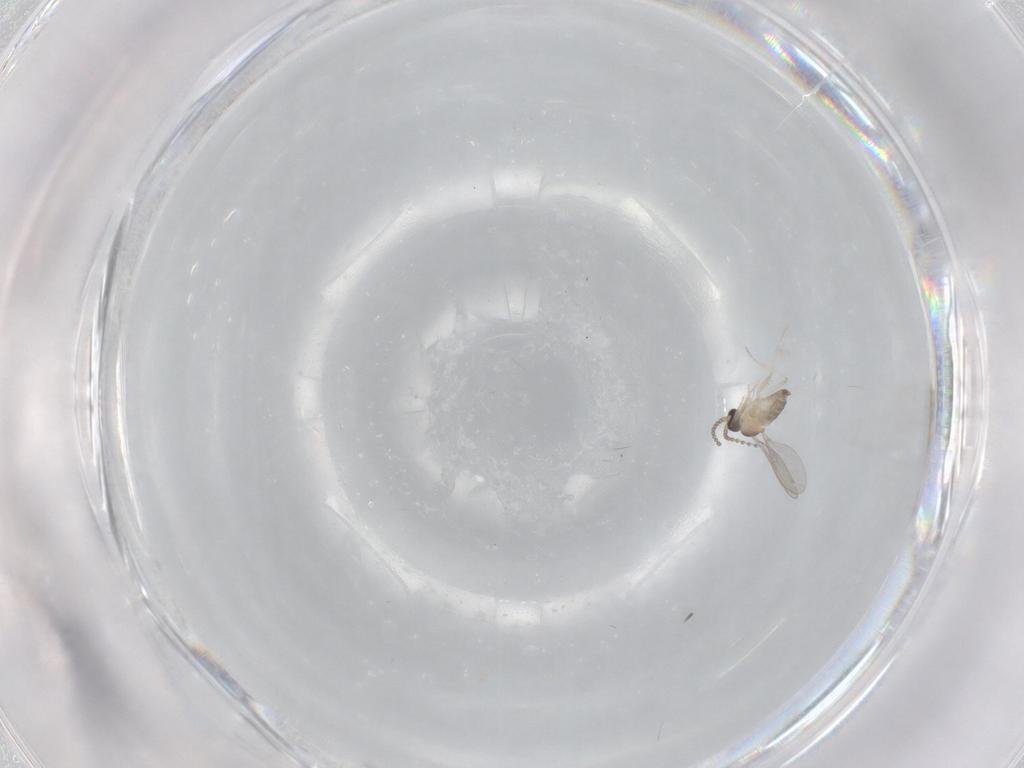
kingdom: Animalia
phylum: Arthropoda
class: Insecta
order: Diptera
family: Cecidomyiidae
